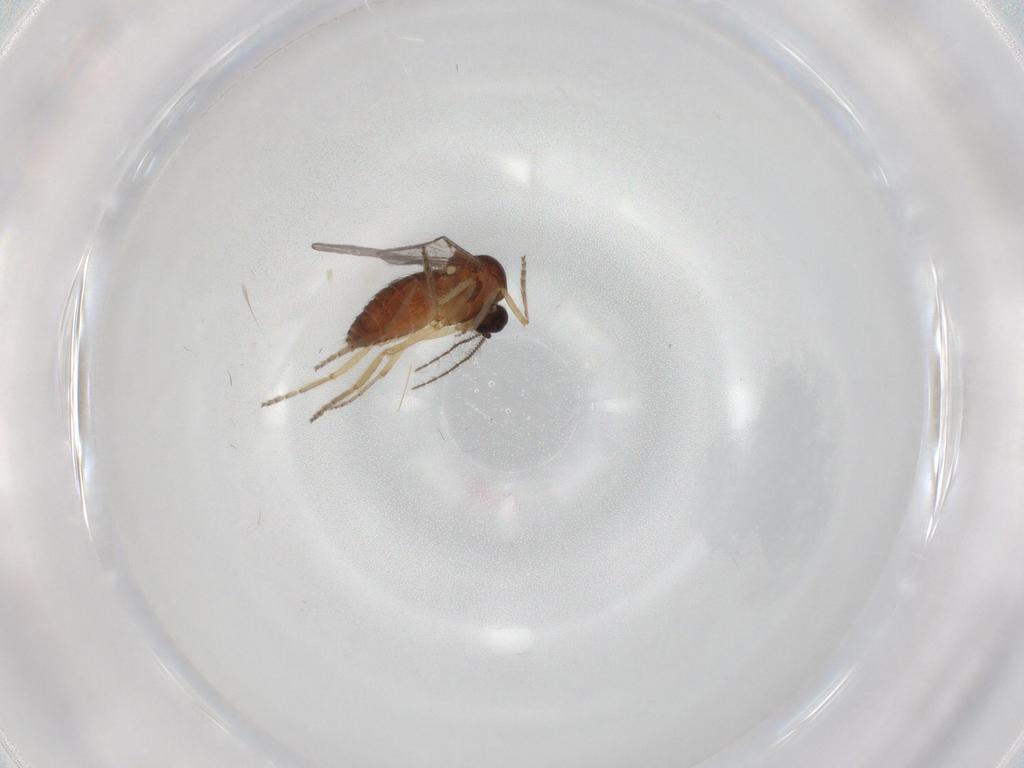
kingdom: Animalia
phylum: Arthropoda
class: Insecta
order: Diptera
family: Ceratopogonidae
